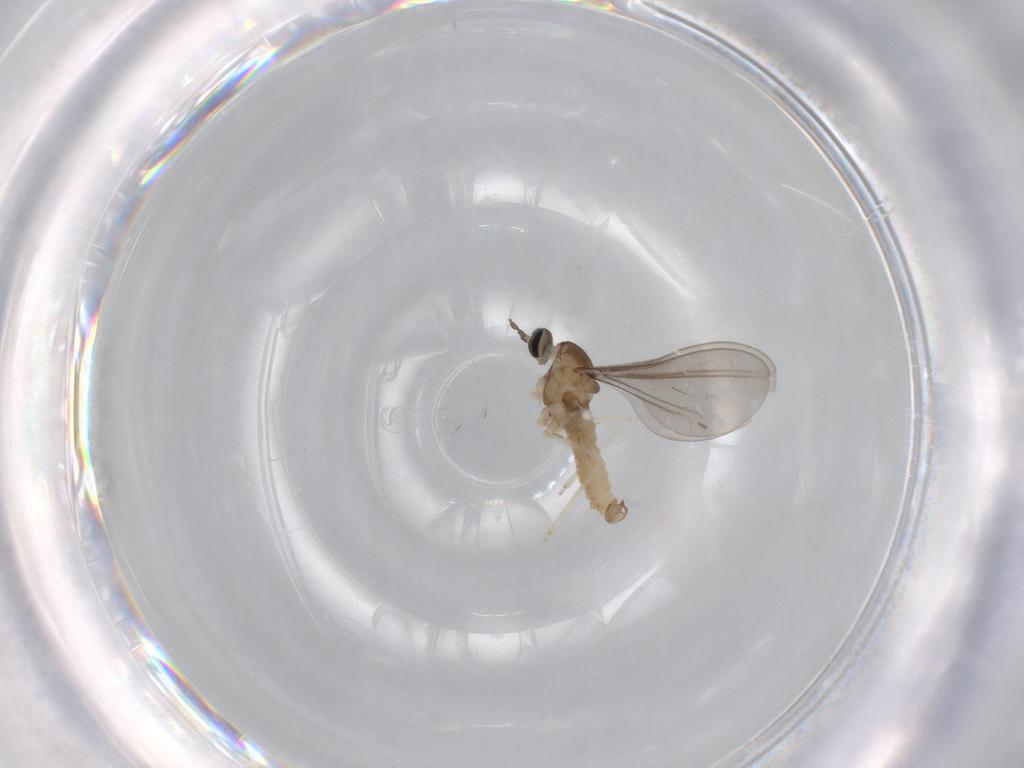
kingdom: Animalia
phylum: Arthropoda
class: Insecta
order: Diptera
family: Cecidomyiidae
